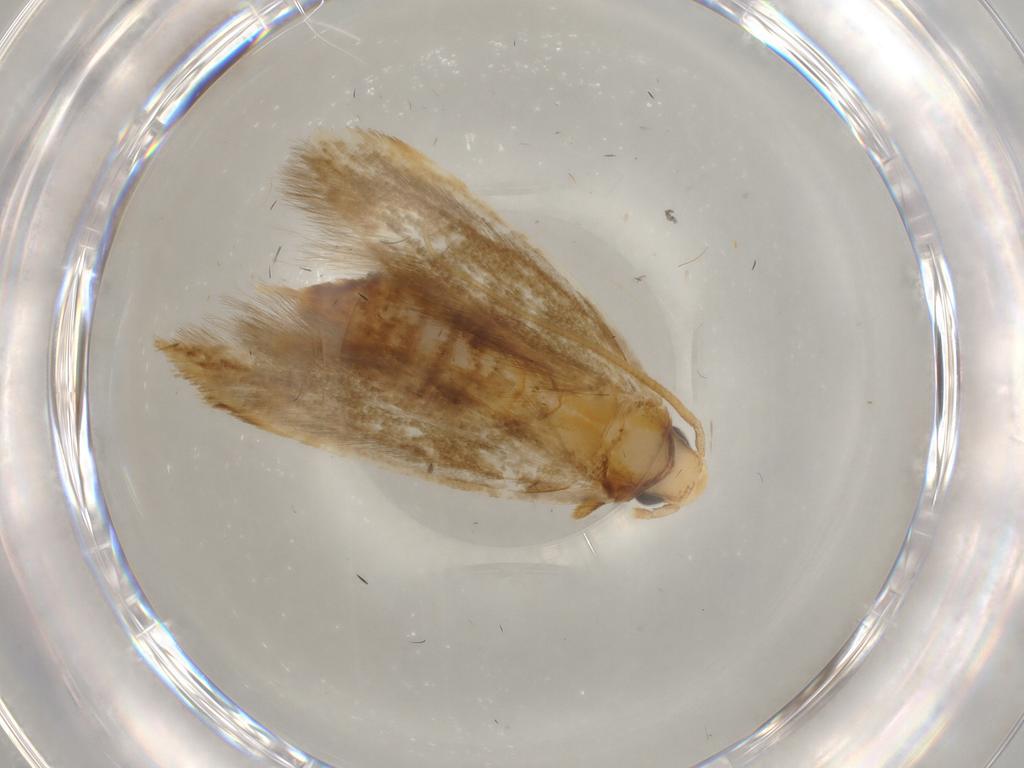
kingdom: Animalia
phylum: Arthropoda
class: Insecta
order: Lepidoptera
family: Tineidae
